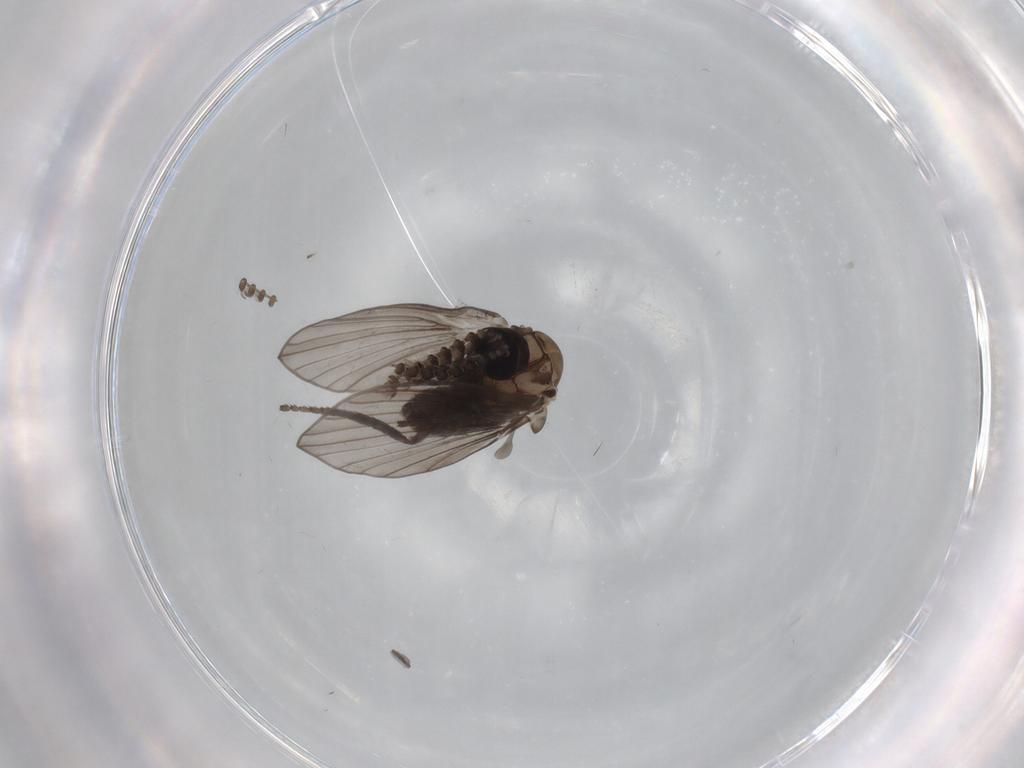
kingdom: Animalia
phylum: Arthropoda
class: Insecta
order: Diptera
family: Psychodidae
